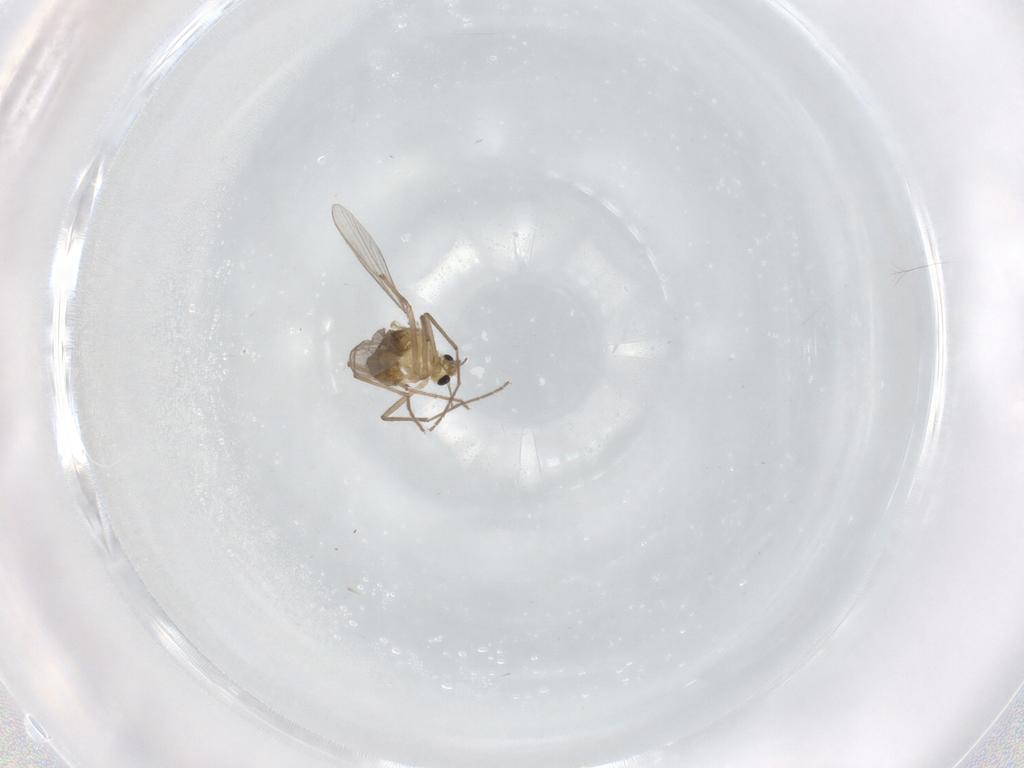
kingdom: Animalia
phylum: Arthropoda
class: Insecta
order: Diptera
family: Chironomidae
